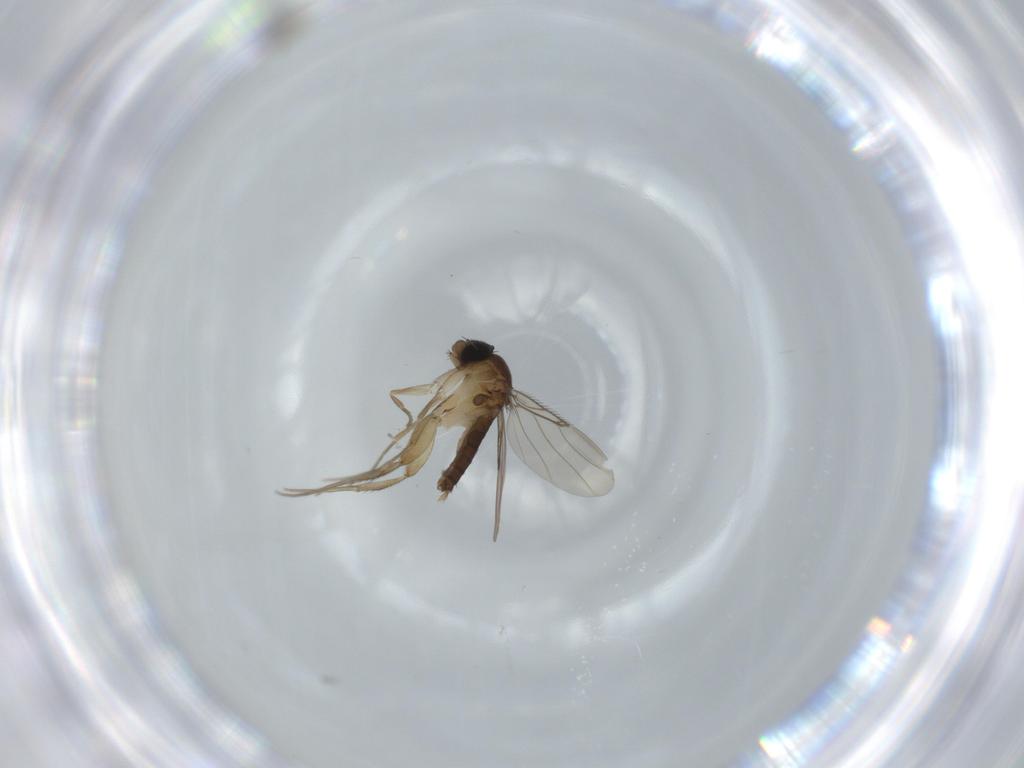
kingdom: Animalia
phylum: Arthropoda
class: Insecta
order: Diptera
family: Phoridae
